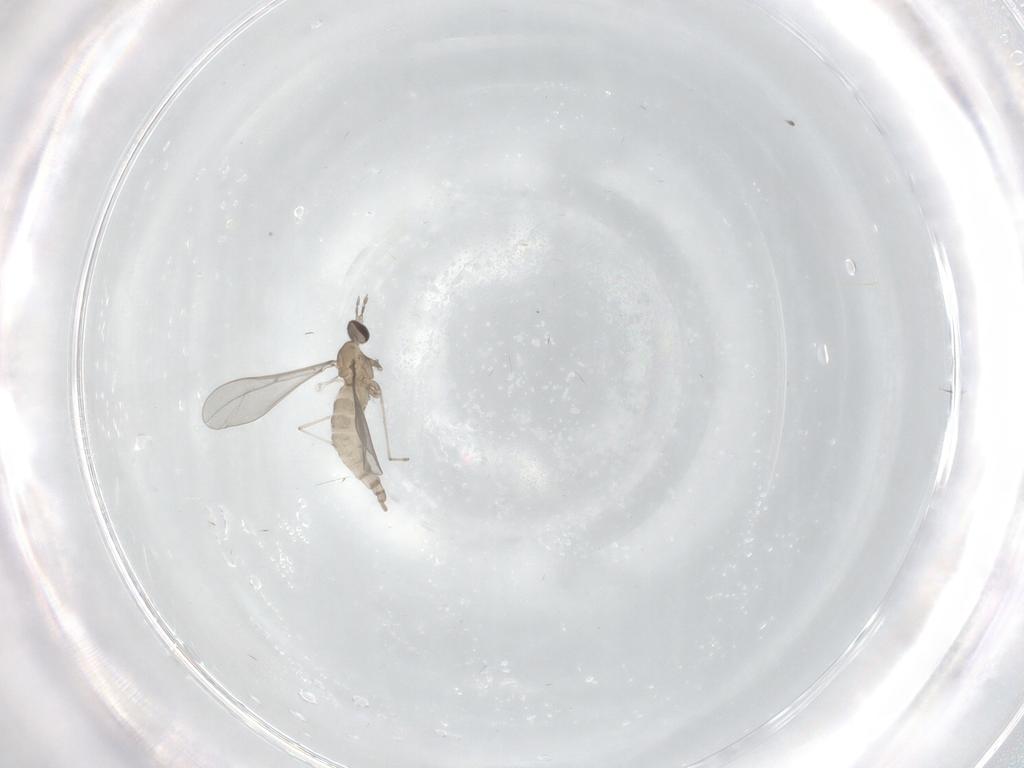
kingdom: Animalia
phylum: Arthropoda
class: Insecta
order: Diptera
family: Cecidomyiidae
